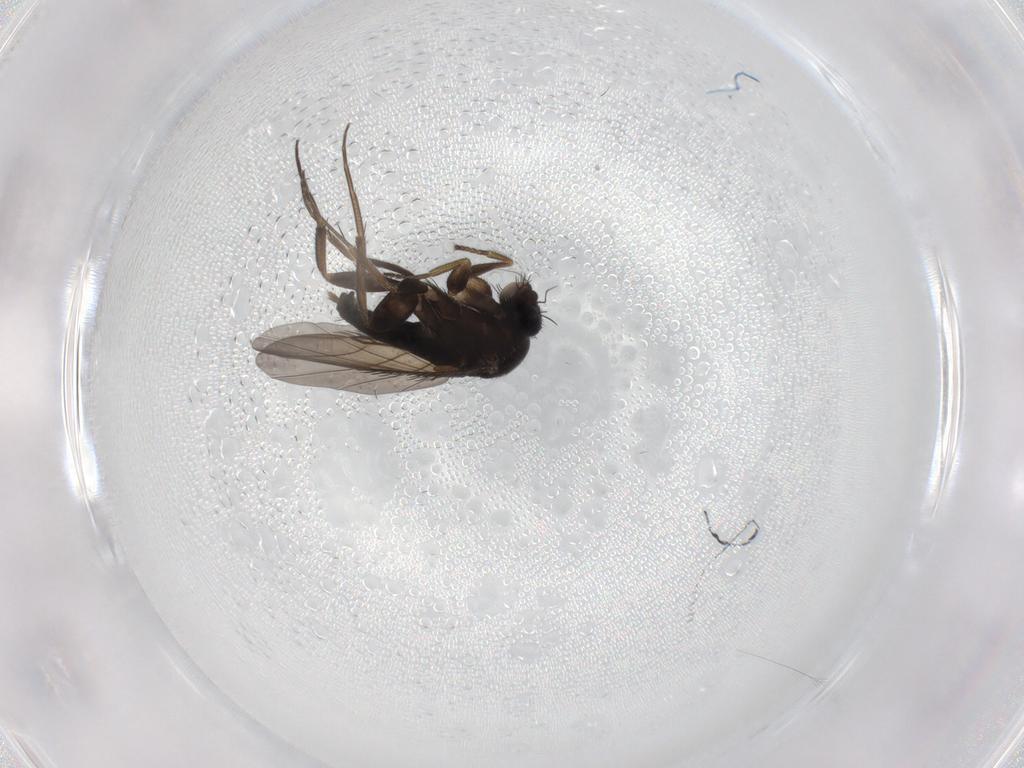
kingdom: Animalia
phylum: Arthropoda
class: Insecta
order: Diptera
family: Phoridae
